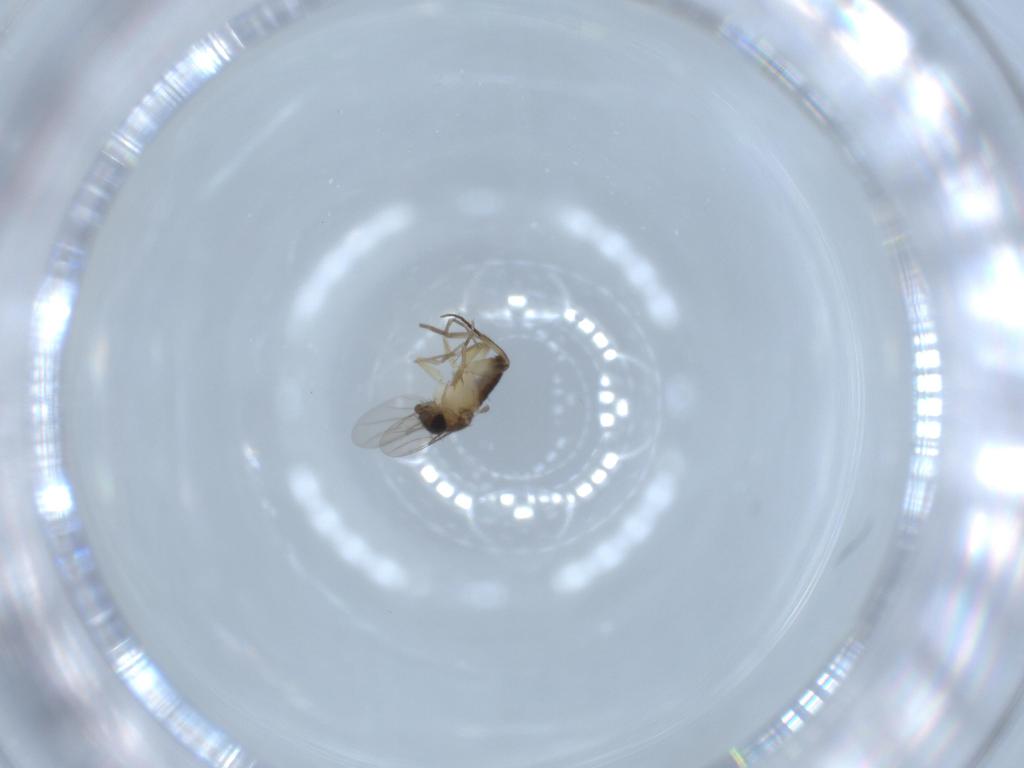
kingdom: Animalia
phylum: Arthropoda
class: Insecta
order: Diptera
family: Phoridae
